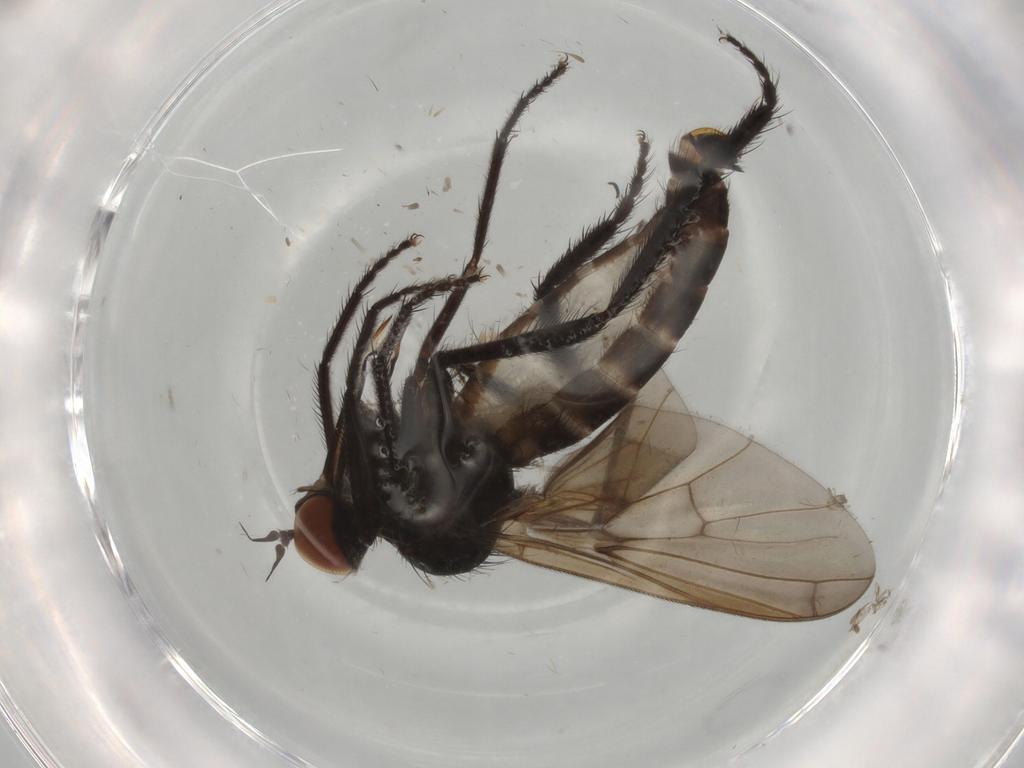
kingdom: Animalia
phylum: Arthropoda
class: Insecta
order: Diptera
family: Empididae
